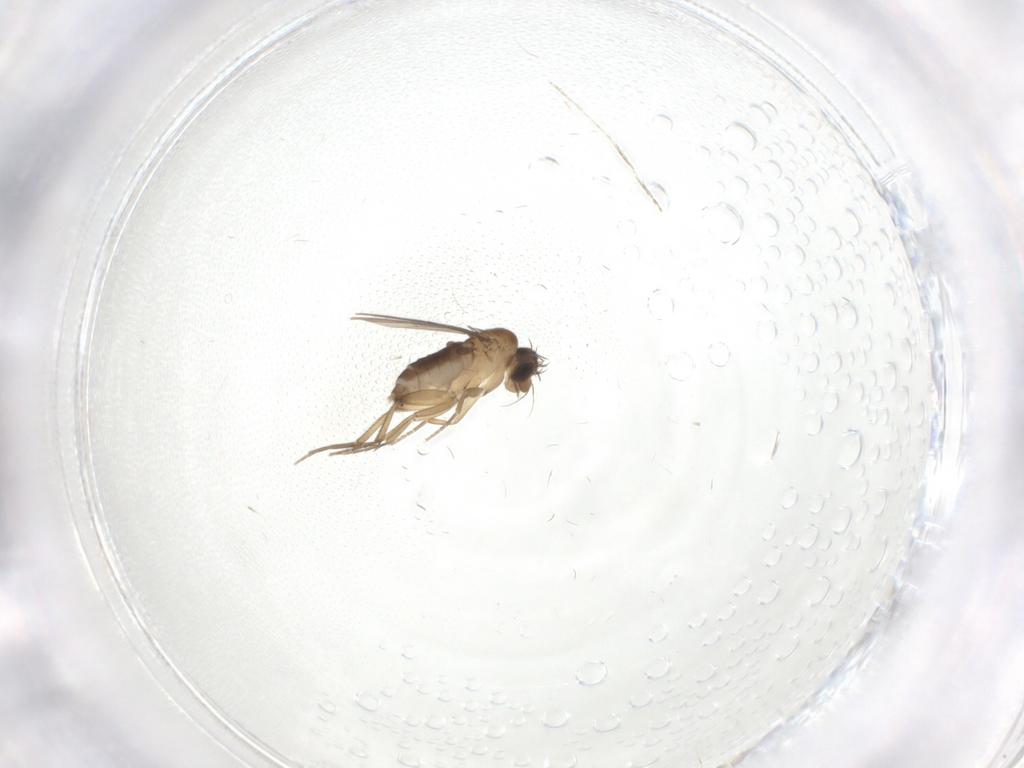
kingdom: Animalia
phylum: Arthropoda
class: Insecta
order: Diptera
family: Phoridae
